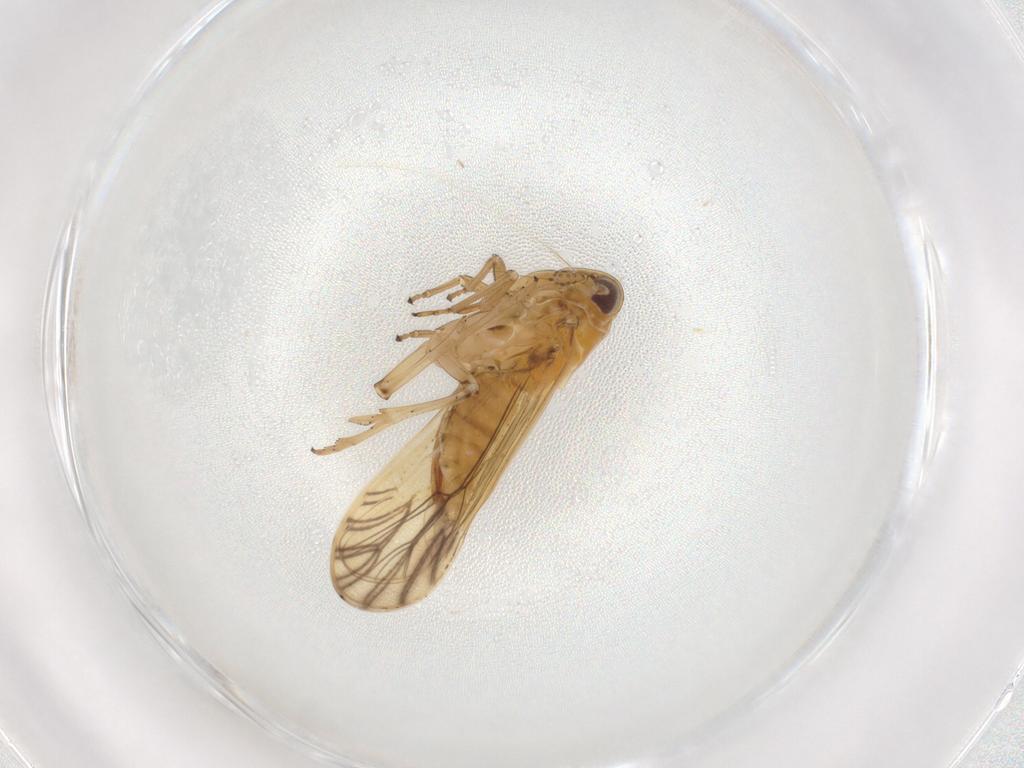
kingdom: Animalia
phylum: Arthropoda
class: Insecta
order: Hemiptera
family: Delphacidae
